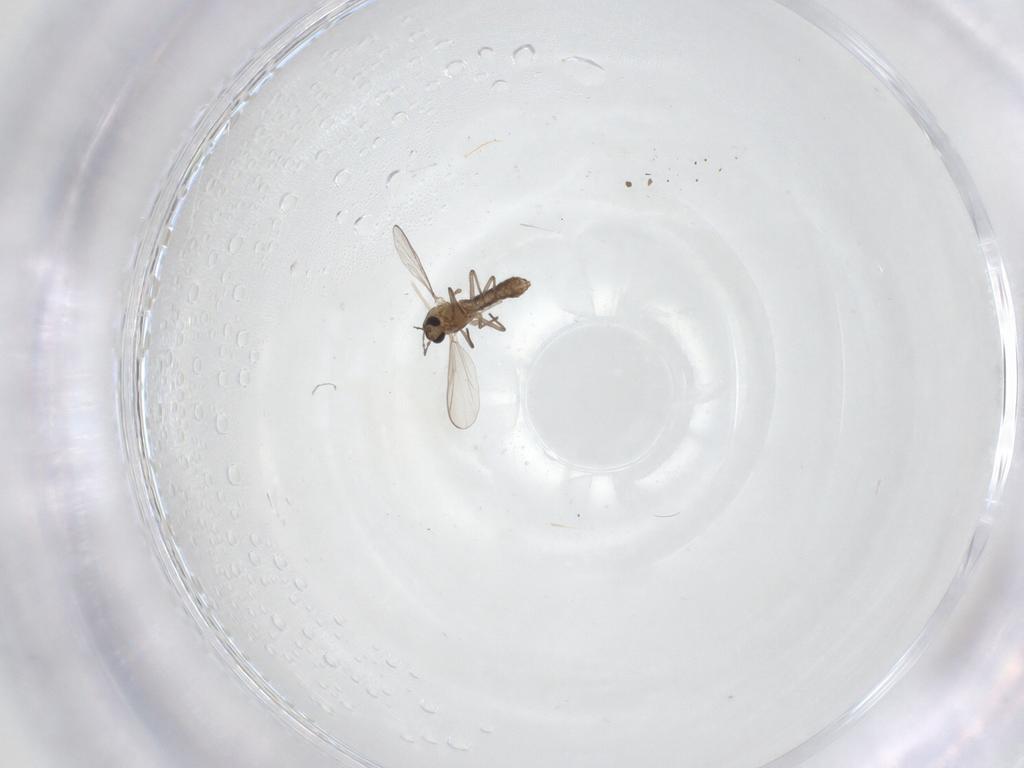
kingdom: Animalia
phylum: Arthropoda
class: Insecta
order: Diptera
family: Chironomidae
